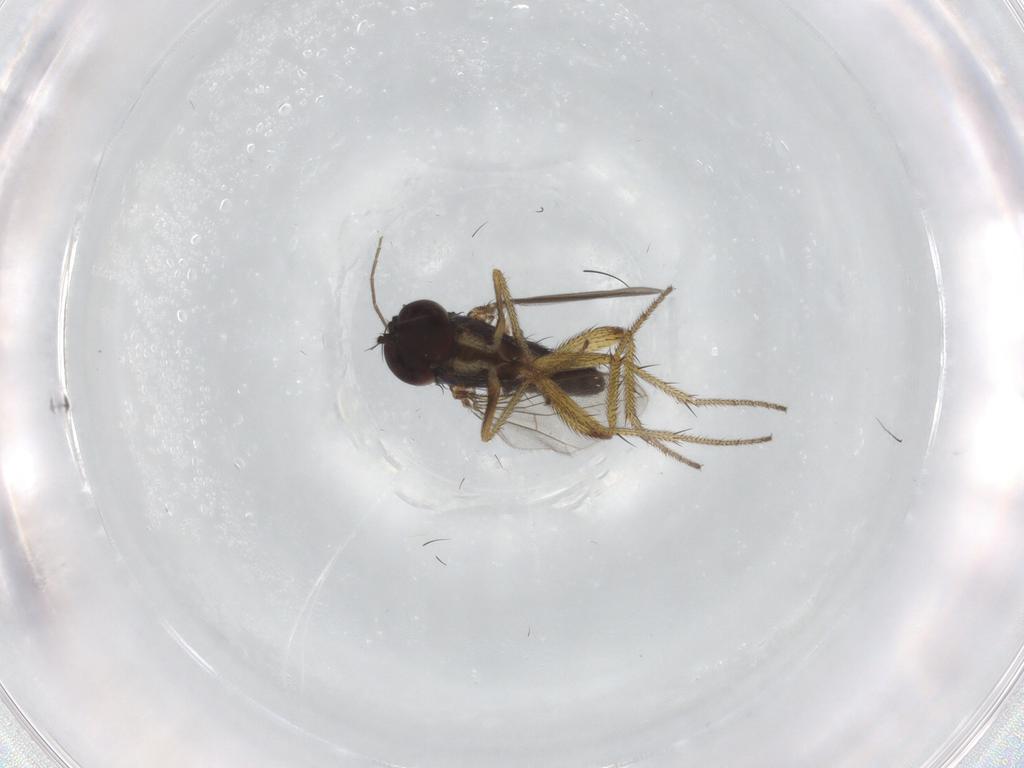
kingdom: Animalia
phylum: Arthropoda
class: Insecta
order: Diptera
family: Chironomidae
